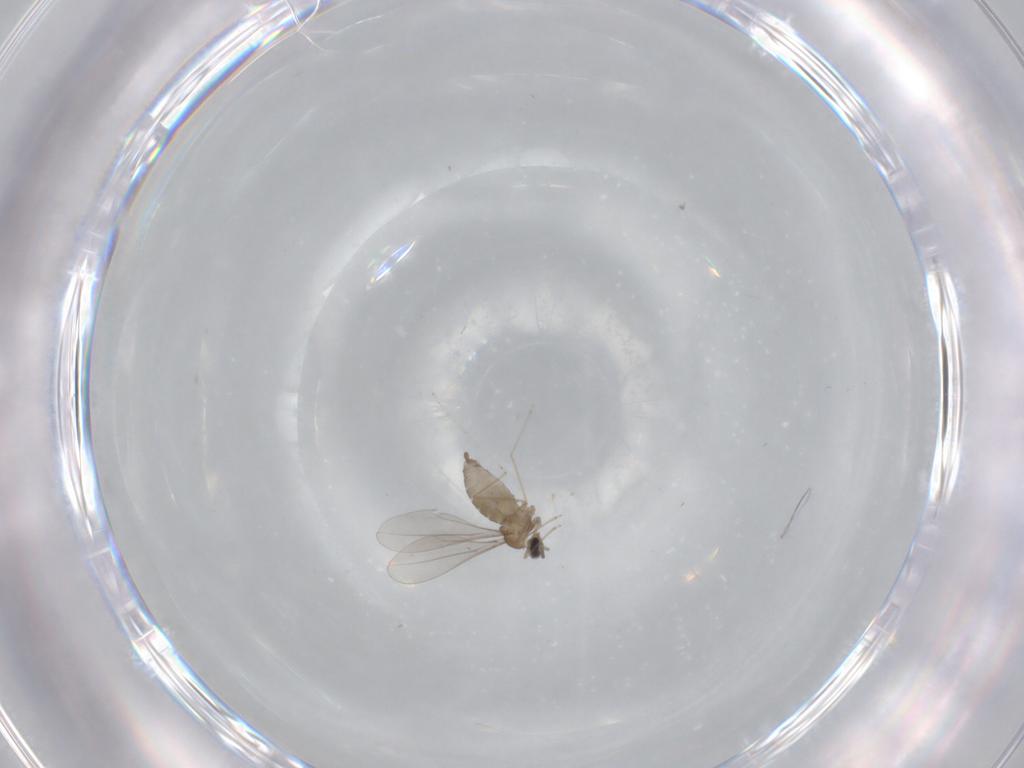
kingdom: Animalia
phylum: Arthropoda
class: Insecta
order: Diptera
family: Cecidomyiidae
